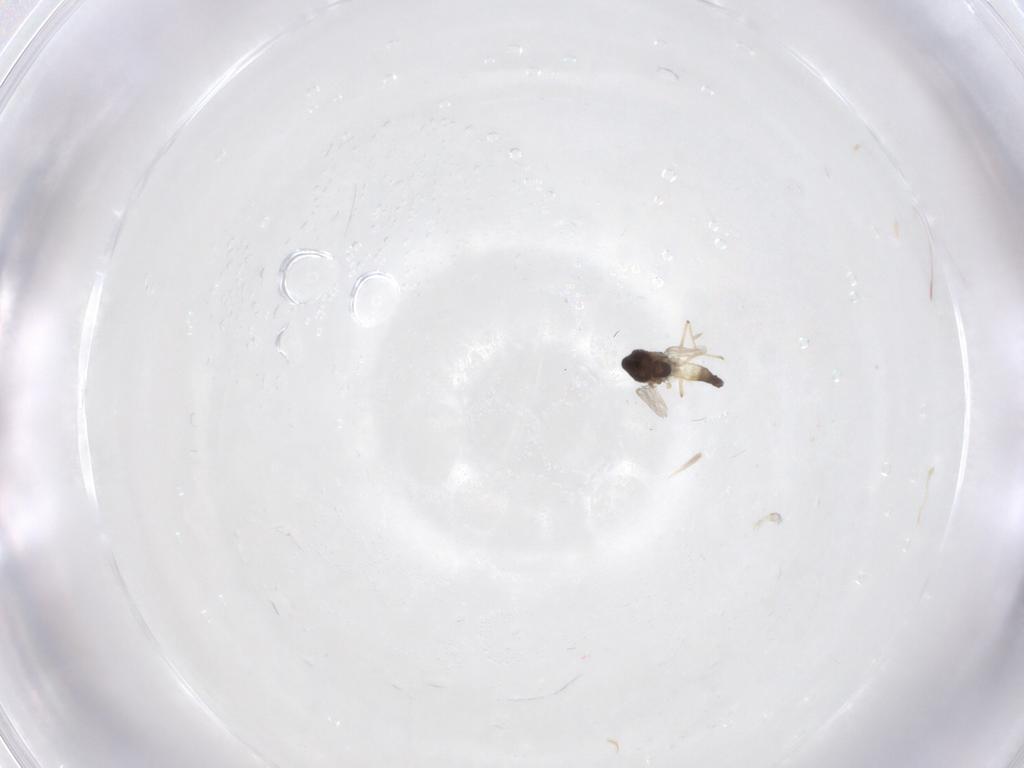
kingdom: Animalia
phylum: Arthropoda
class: Insecta
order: Diptera
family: Chironomidae
